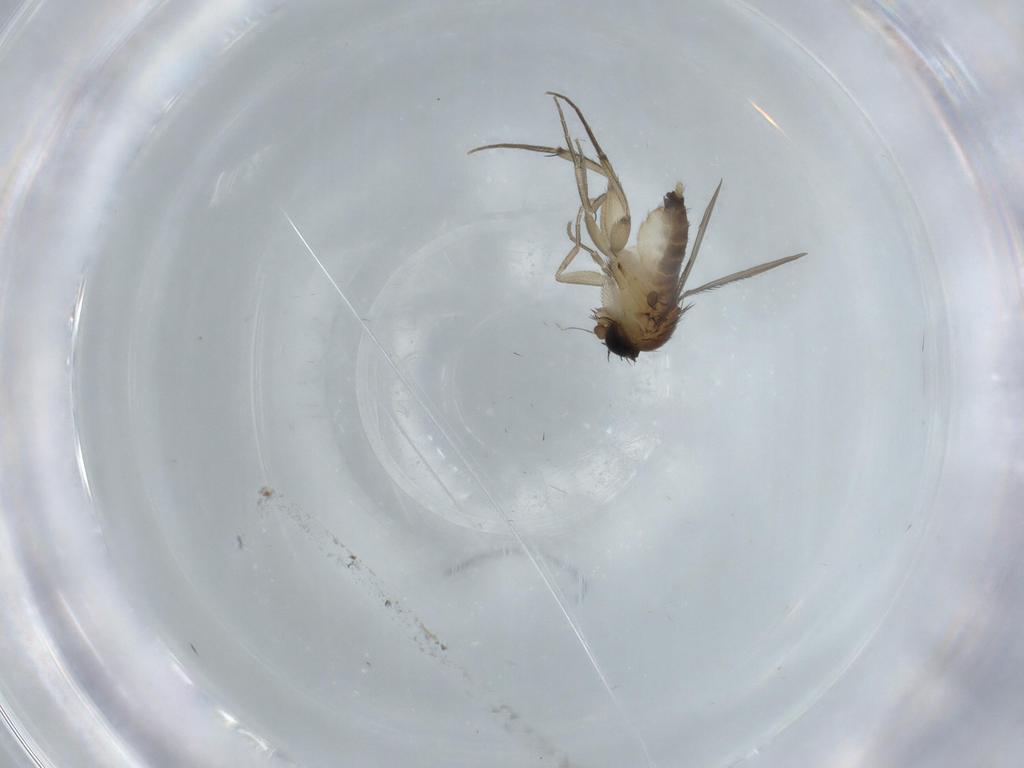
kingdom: Animalia
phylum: Arthropoda
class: Insecta
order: Diptera
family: Phoridae
